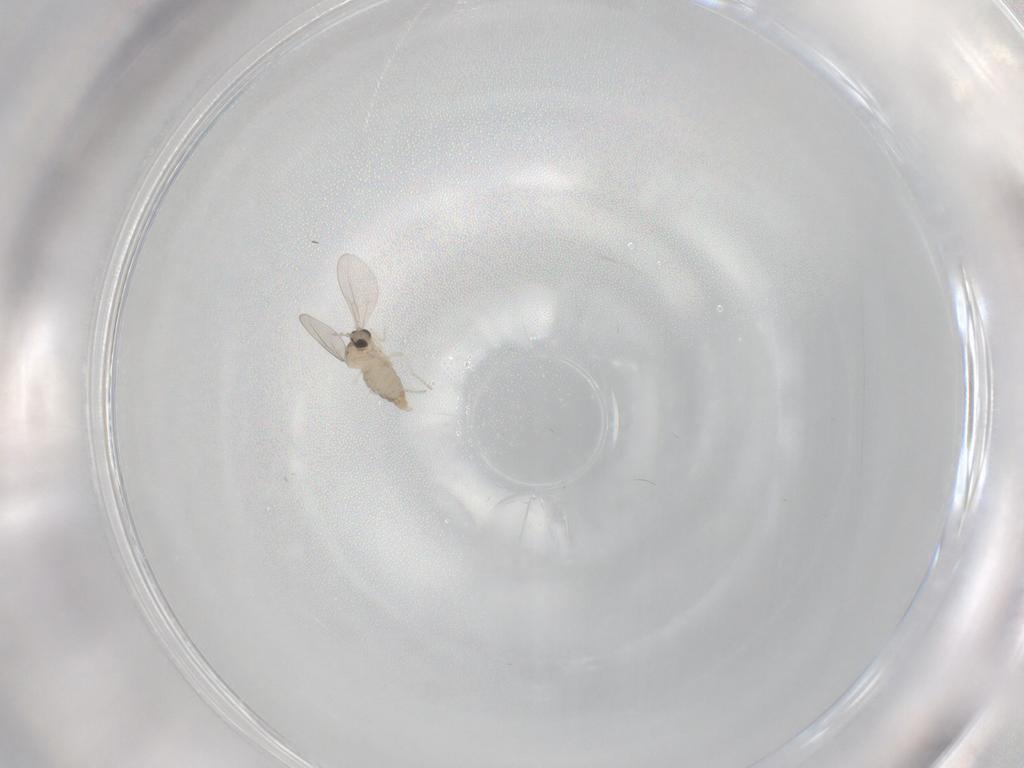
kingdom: Animalia
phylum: Arthropoda
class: Insecta
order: Diptera
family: Cecidomyiidae
